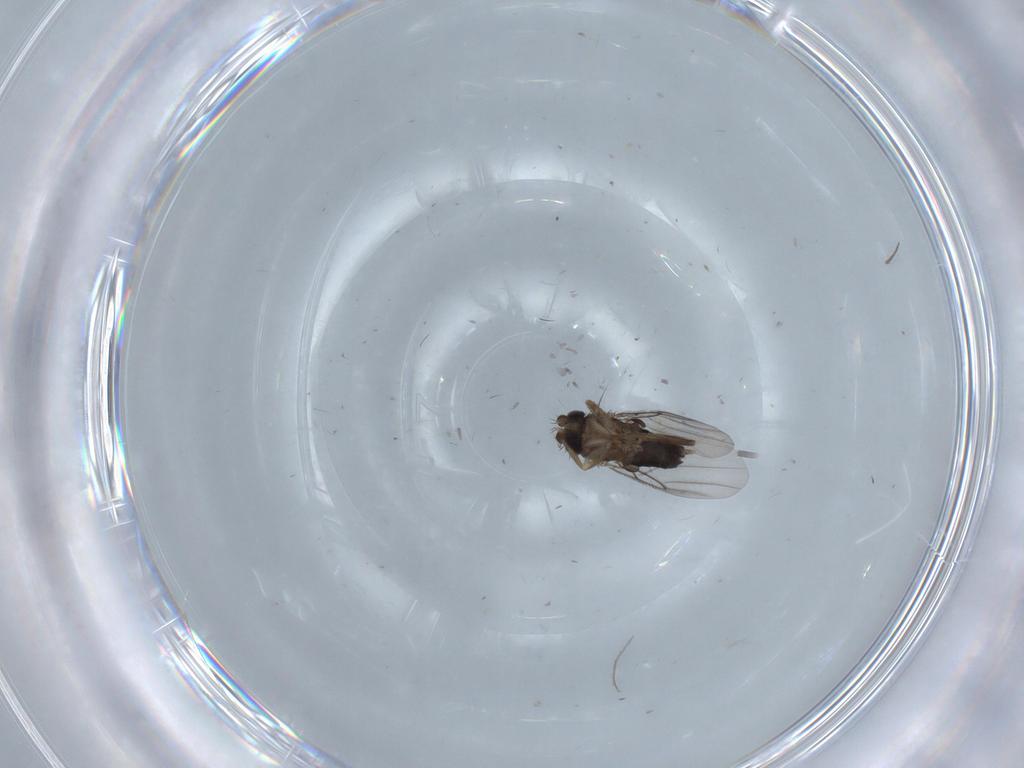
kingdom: Animalia
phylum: Arthropoda
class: Insecta
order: Diptera
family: Phoridae
